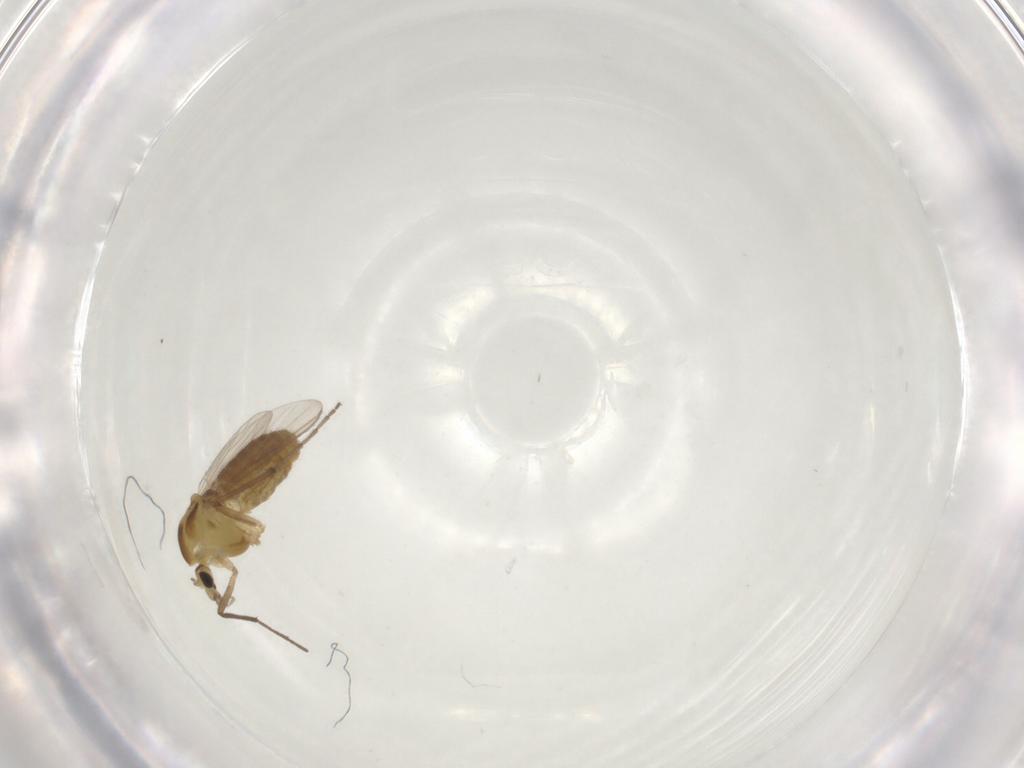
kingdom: Animalia
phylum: Arthropoda
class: Insecta
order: Diptera
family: Chironomidae
